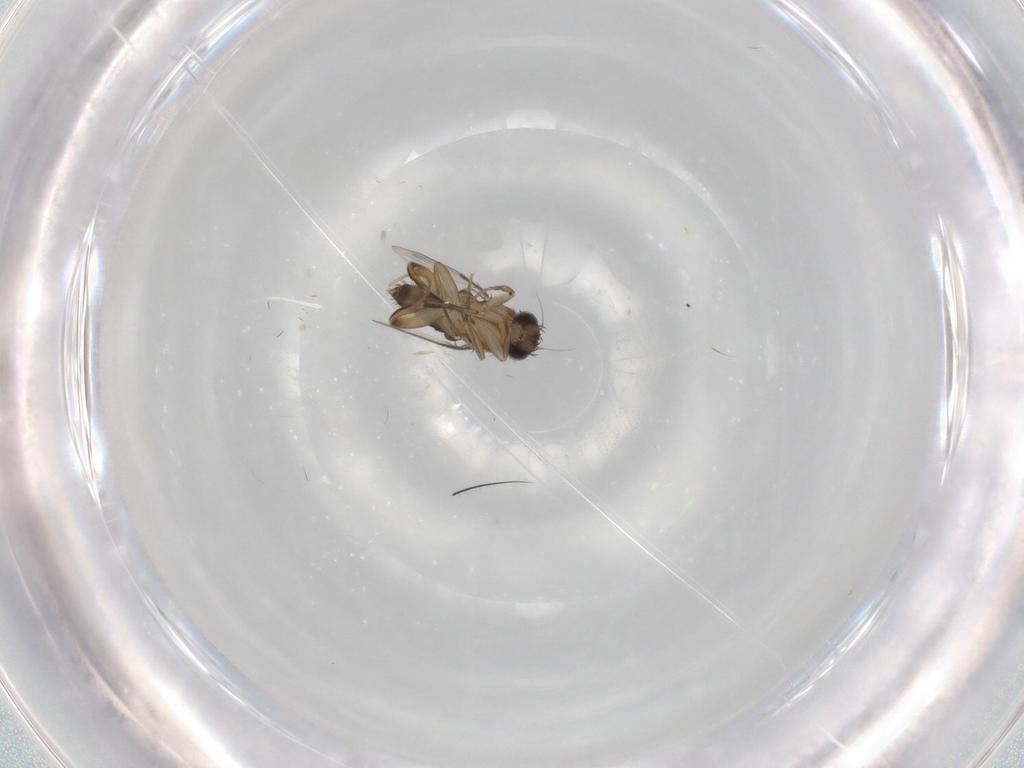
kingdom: Animalia
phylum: Arthropoda
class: Insecta
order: Diptera
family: Phoridae
